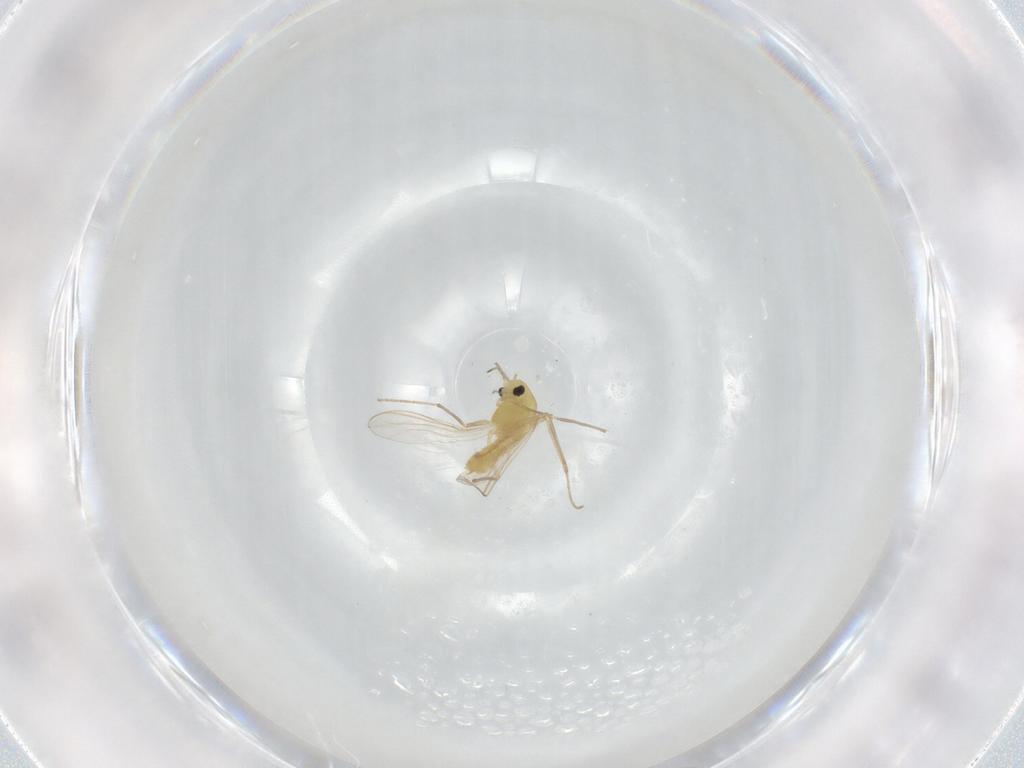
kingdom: Animalia
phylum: Arthropoda
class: Insecta
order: Diptera
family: Chironomidae
